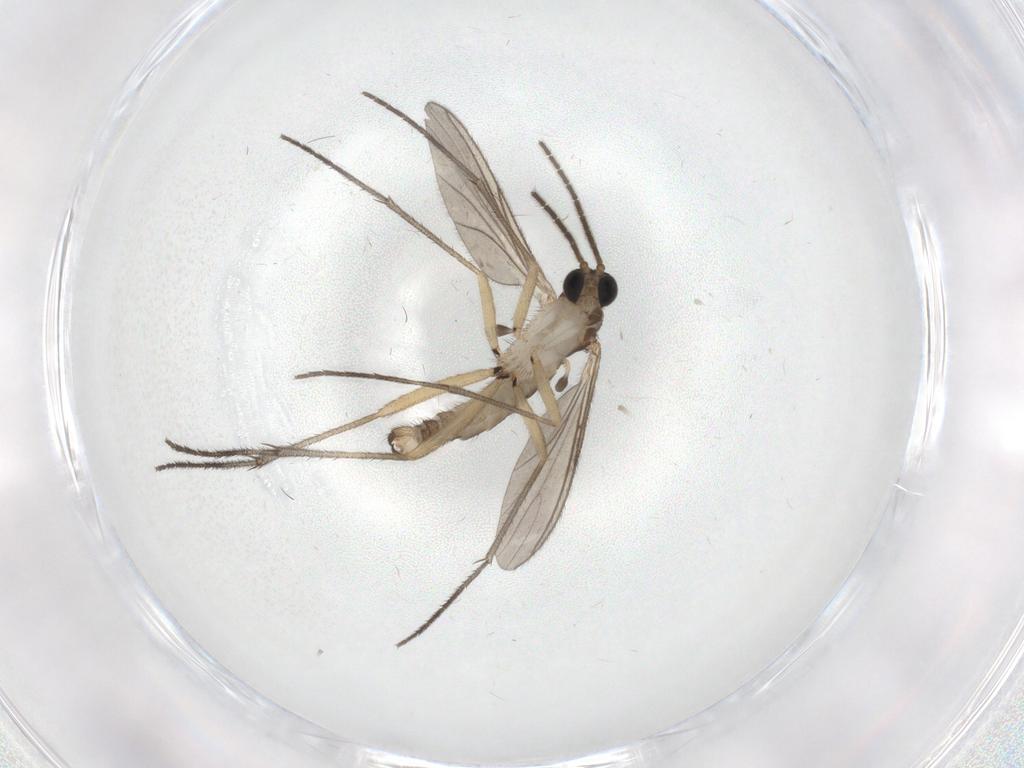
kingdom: Animalia
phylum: Arthropoda
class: Insecta
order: Diptera
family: Sciaridae
